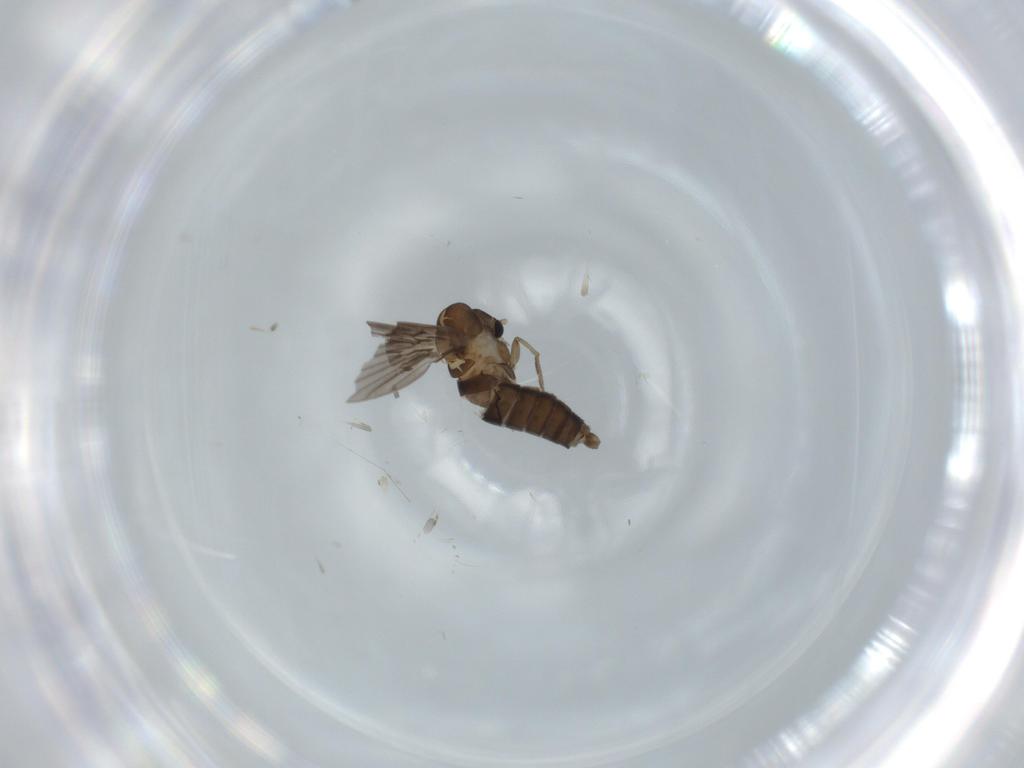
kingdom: Animalia
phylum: Arthropoda
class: Insecta
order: Diptera
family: Psychodidae
